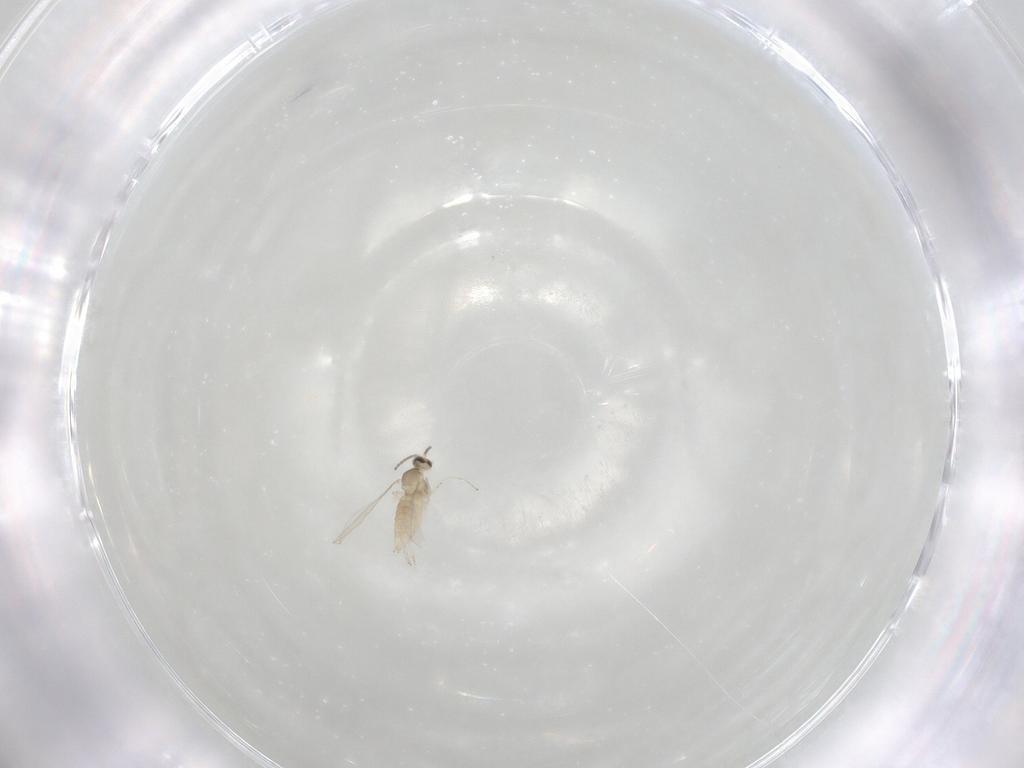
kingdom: Animalia
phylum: Arthropoda
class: Insecta
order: Diptera
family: Cecidomyiidae
